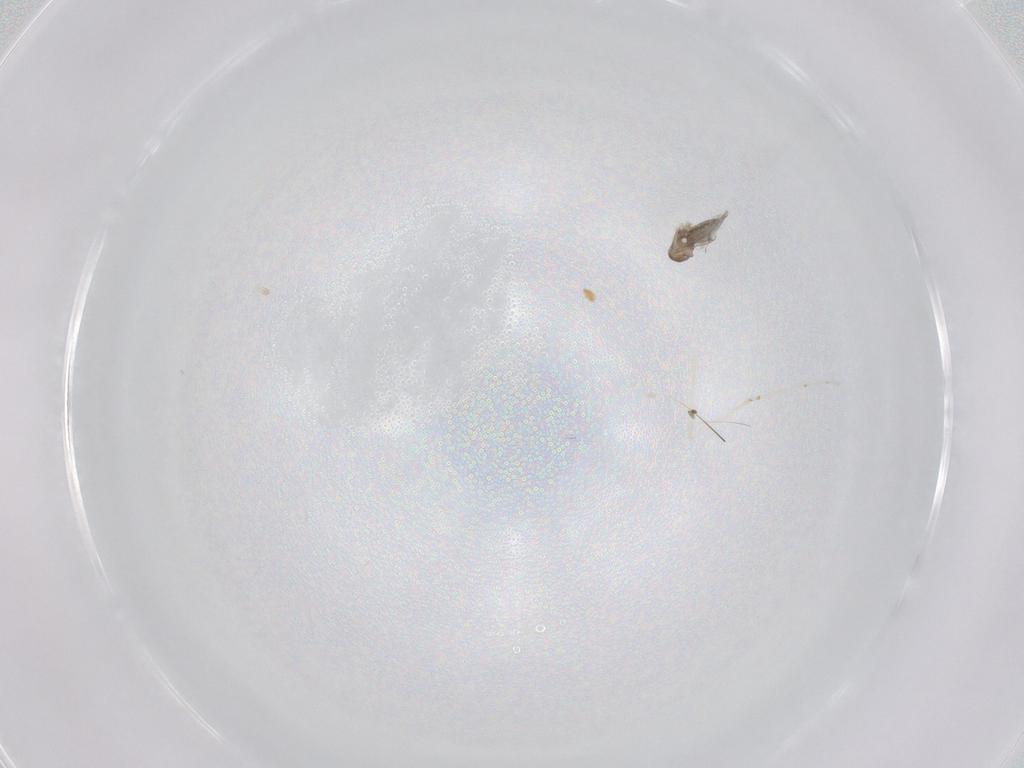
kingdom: Animalia
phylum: Arthropoda
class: Insecta
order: Diptera
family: Cecidomyiidae
